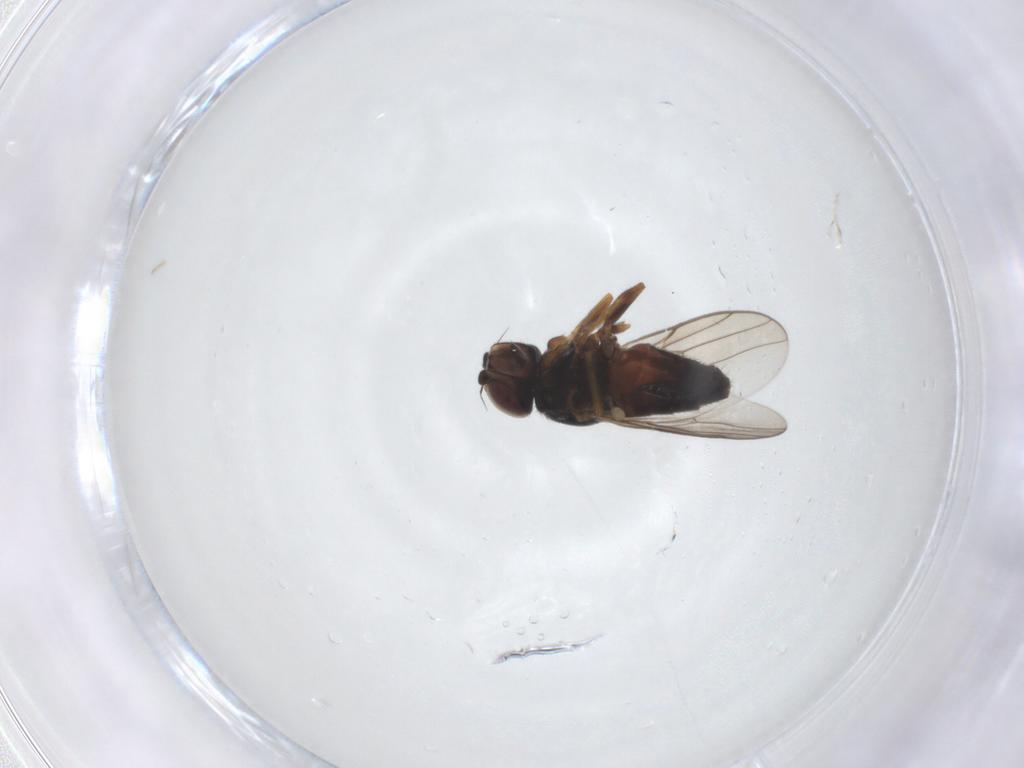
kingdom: Animalia
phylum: Arthropoda
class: Insecta
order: Diptera
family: Chloropidae
